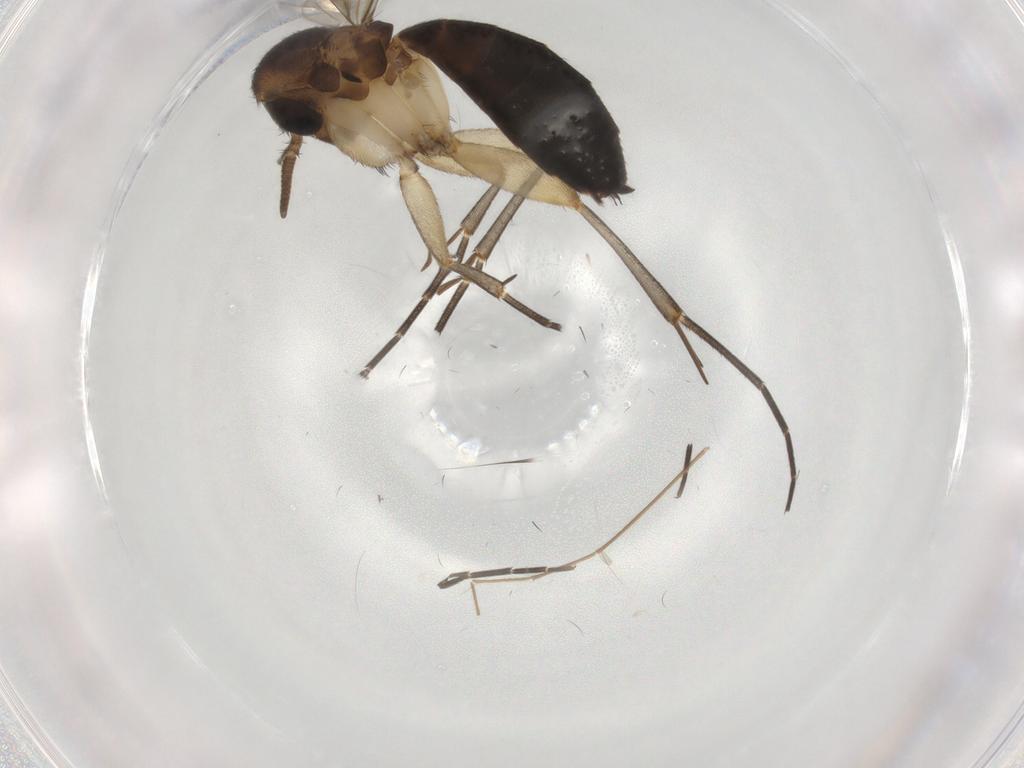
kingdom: Animalia
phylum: Arthropoda
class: Insecta
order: Diptera
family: Mycetophilidae
